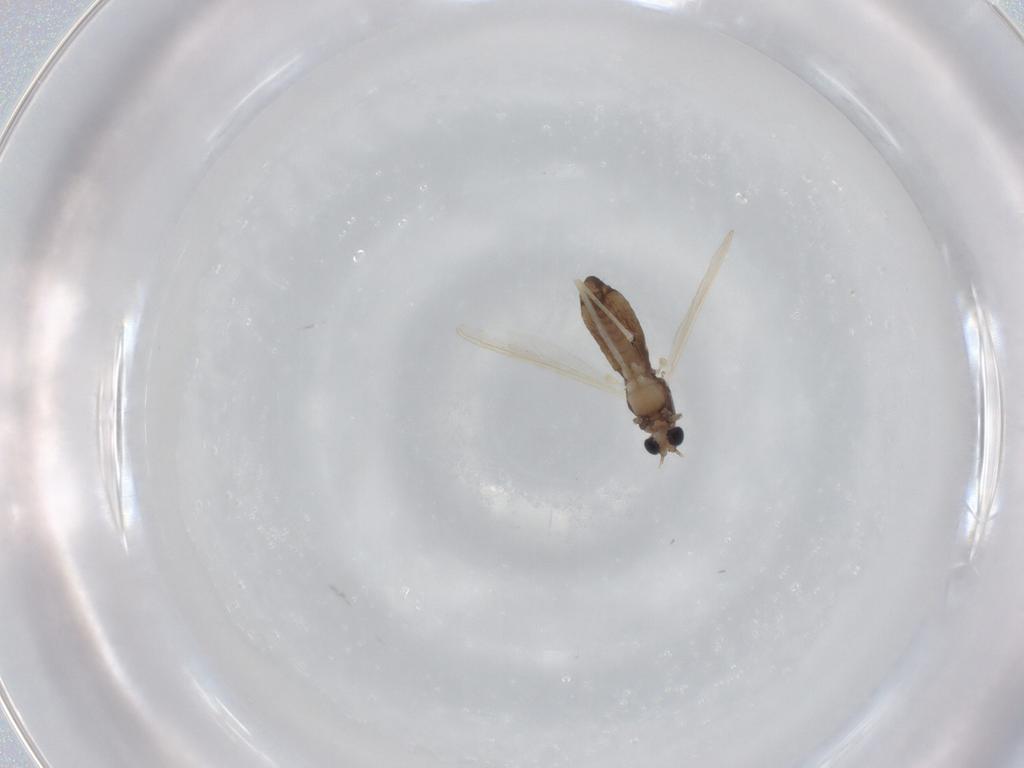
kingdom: Animalia
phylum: Arthropoda
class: Insecta
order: Diptera
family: Chironomidae
